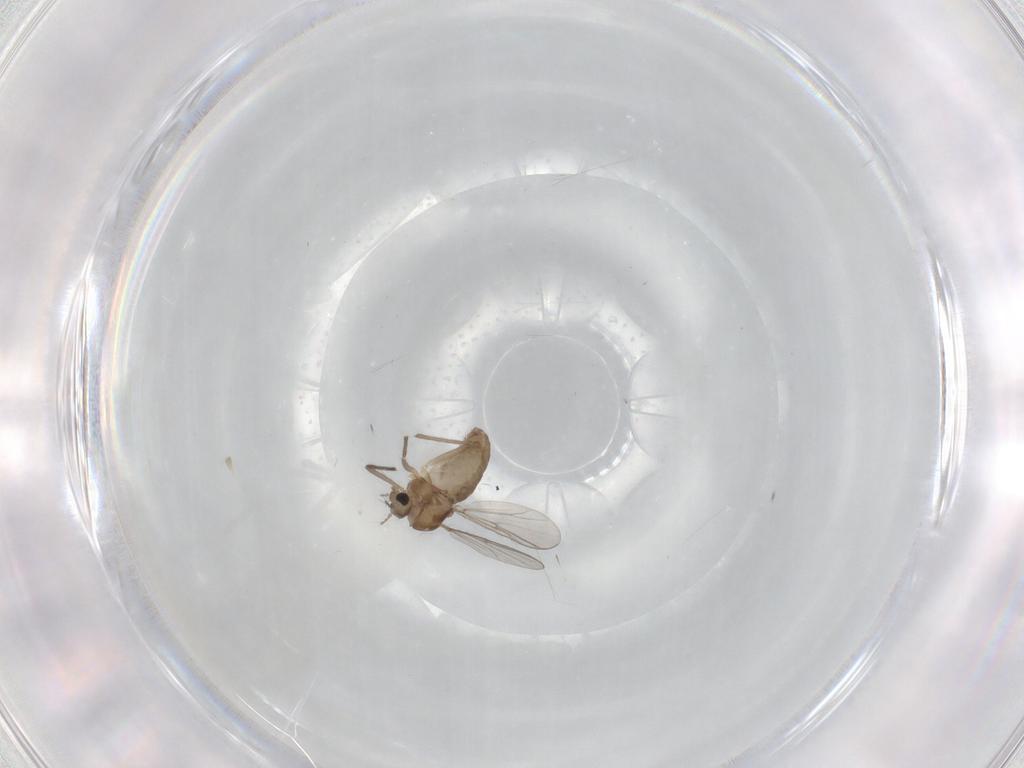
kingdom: Animalia
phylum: Arthropoda
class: Insecta
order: Diptera
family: Chironomidae
